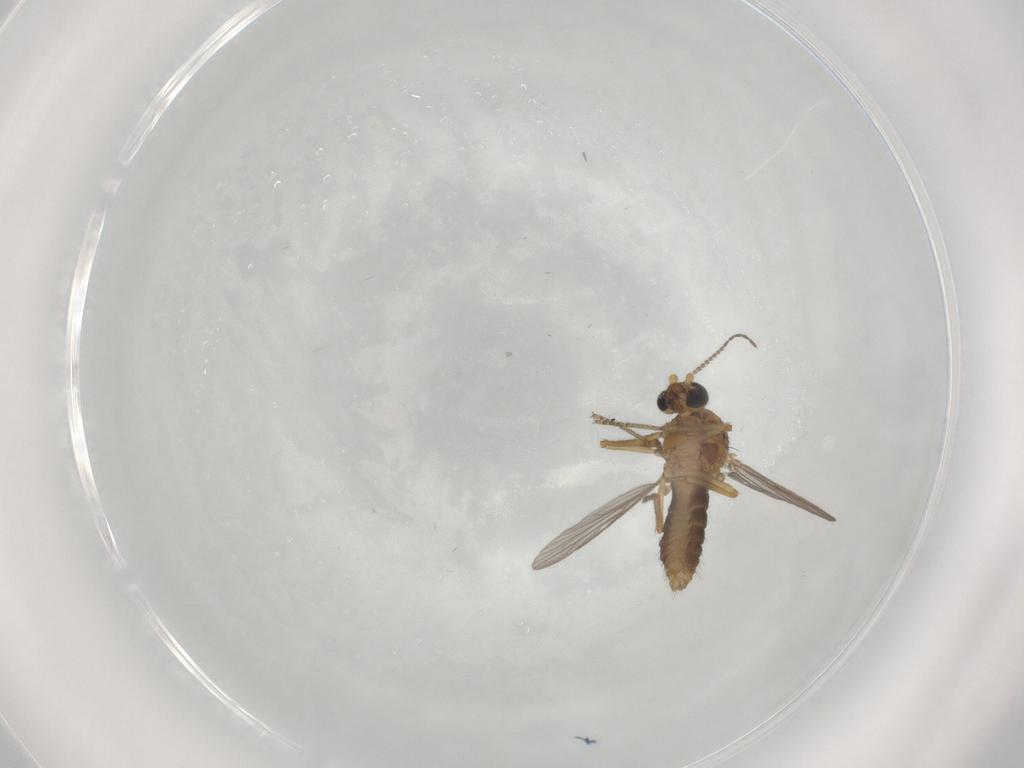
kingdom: Animalia
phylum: Arthropoda
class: Insecta
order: Diptera
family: Ceratopogonidae
